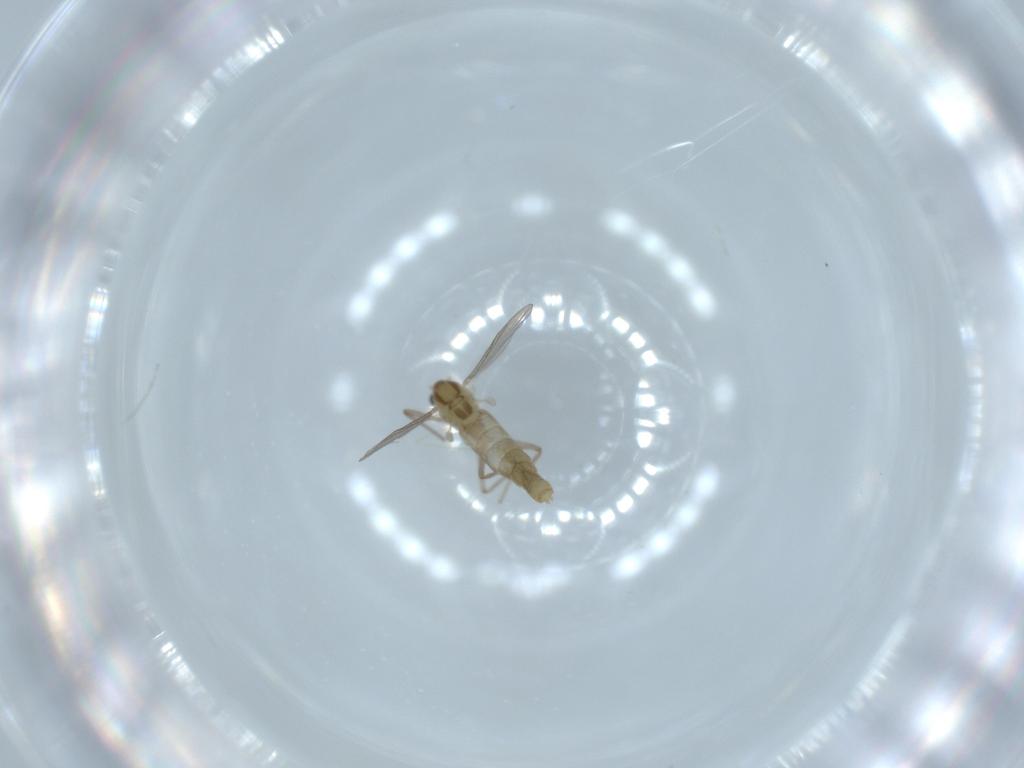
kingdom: Animalia
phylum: Arthropoda
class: Insecta
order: Diptera
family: Chironomidae
